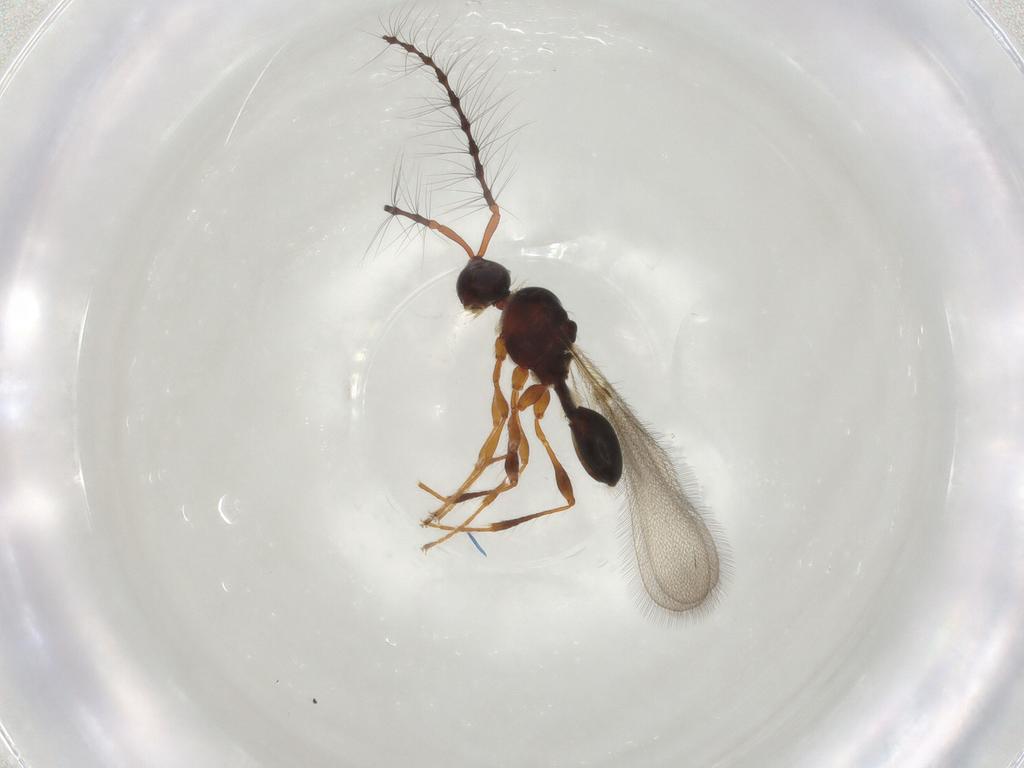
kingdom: Animalia
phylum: Arthropoda
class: Insecta
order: Hymenoptera
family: Diapriidae
